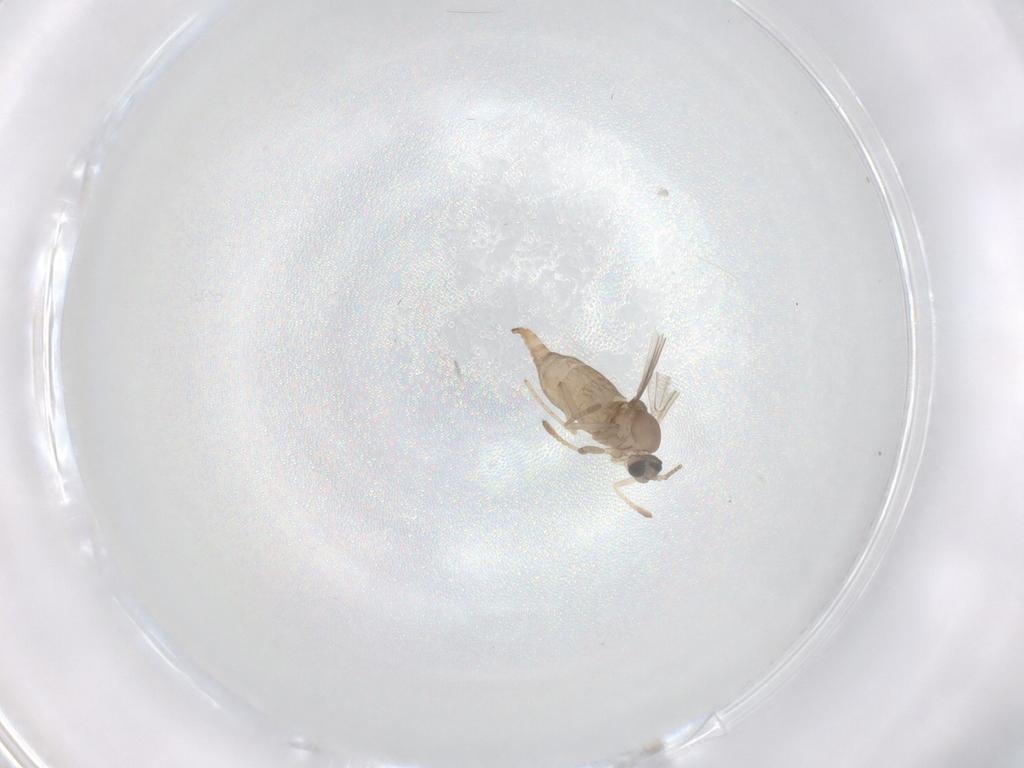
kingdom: Animalia
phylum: Arthropoda
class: Insecta
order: Diptera
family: Cecidomyiidae
